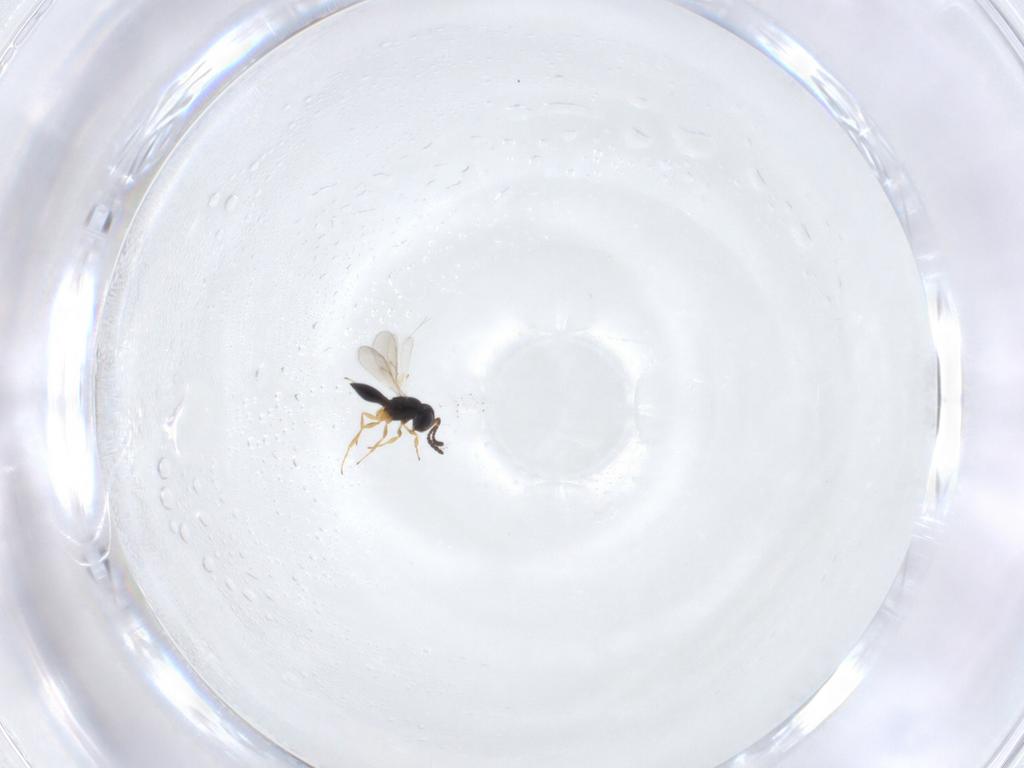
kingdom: Animalia
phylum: Arthropoda
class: Insecta
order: Hymenoptera
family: Scelionidae
